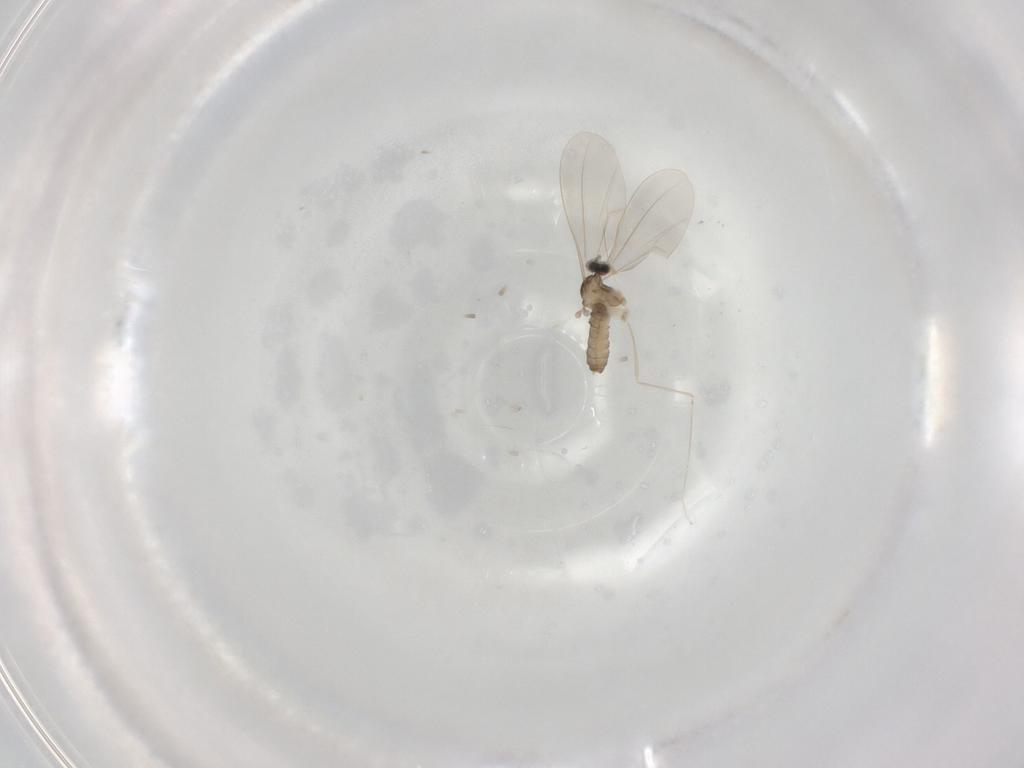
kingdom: Animalia
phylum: Arthropoda
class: Insecta
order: Diptera
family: Cecidomyiidae
